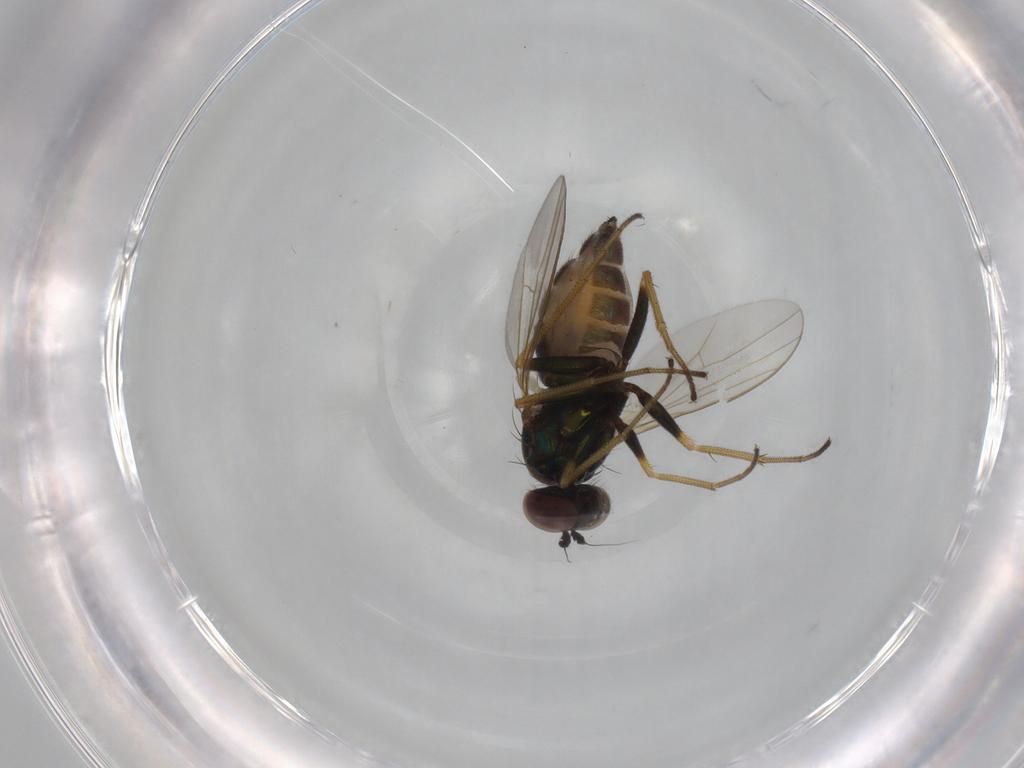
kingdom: Animalia
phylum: Arthropoda
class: Insecta
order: Diptera
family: Dolichopodidae
